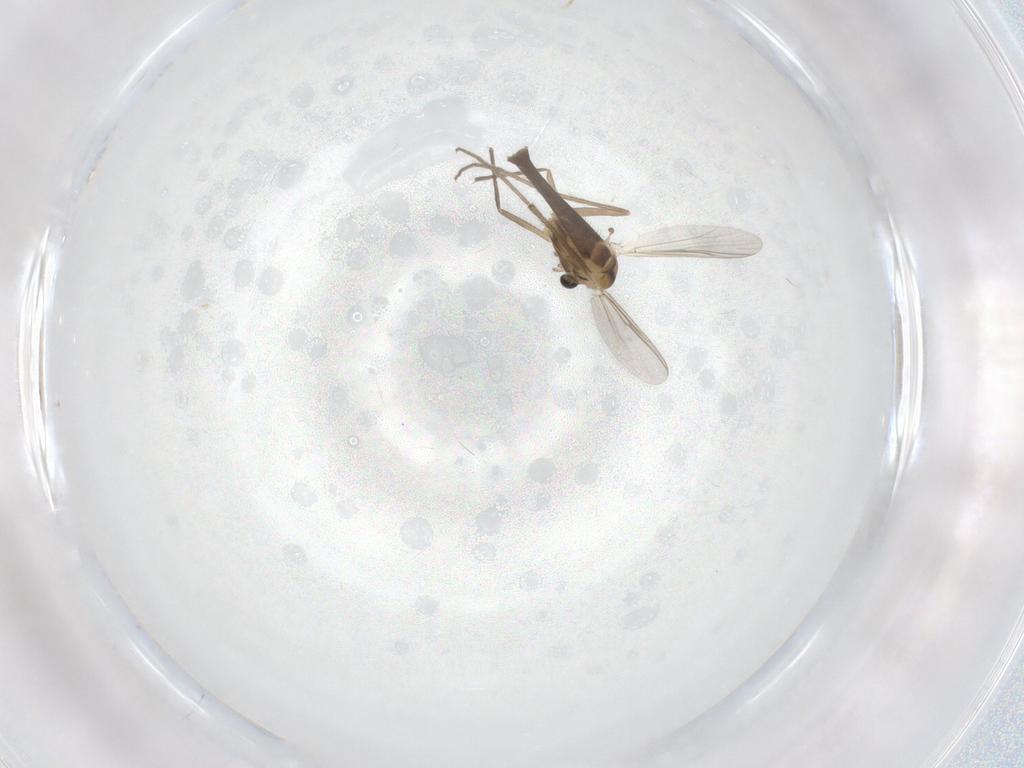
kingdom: Animalia
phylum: Arthropoda
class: Insecta
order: Diptera
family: Chironomidae
